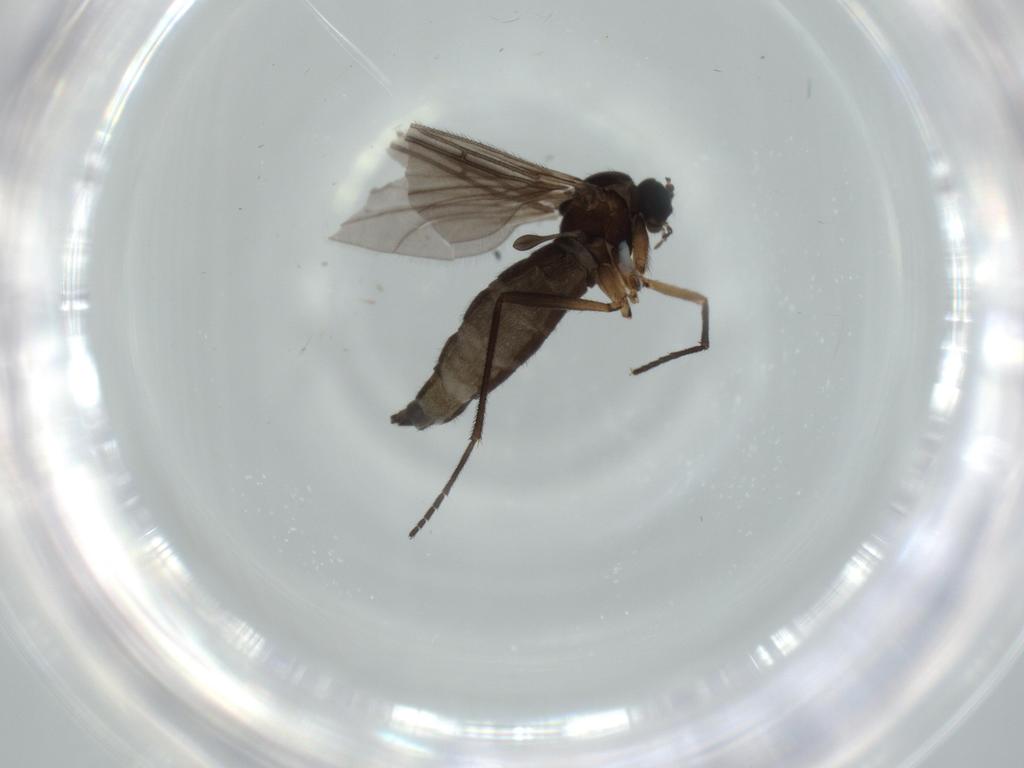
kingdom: Animalia
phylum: Arthropoda
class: Insecta
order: Diptera
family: Sciaridae
